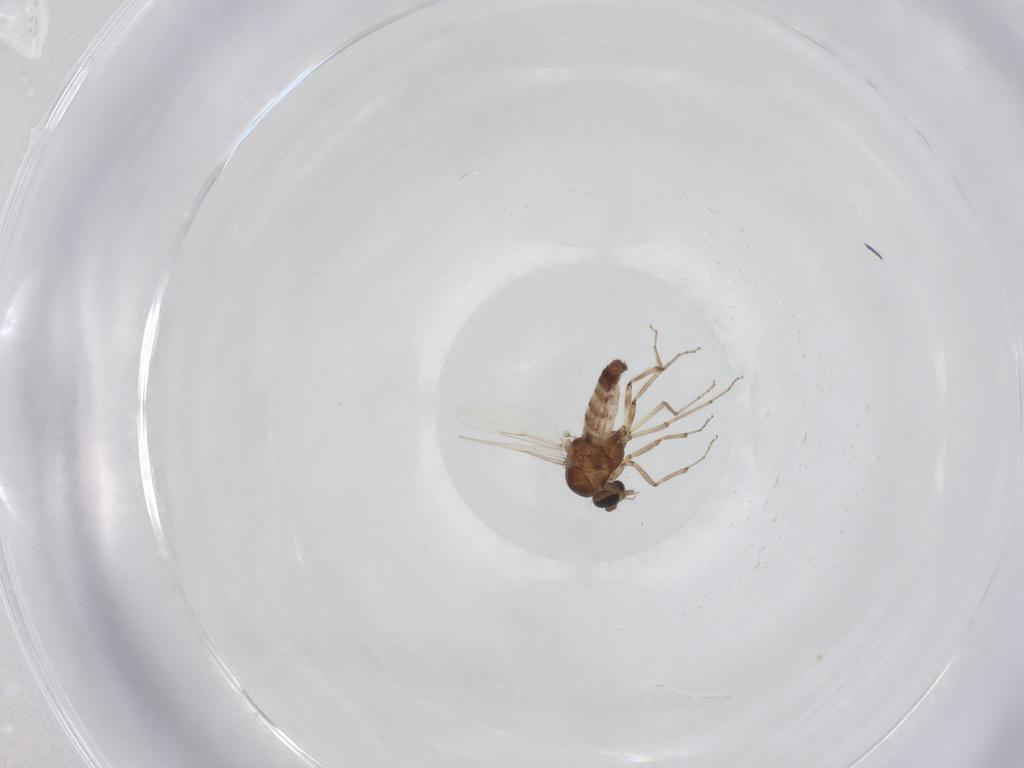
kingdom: Animalia
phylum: Arthropoda
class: Insecta
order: Diptera
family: Ceratopogonidae
